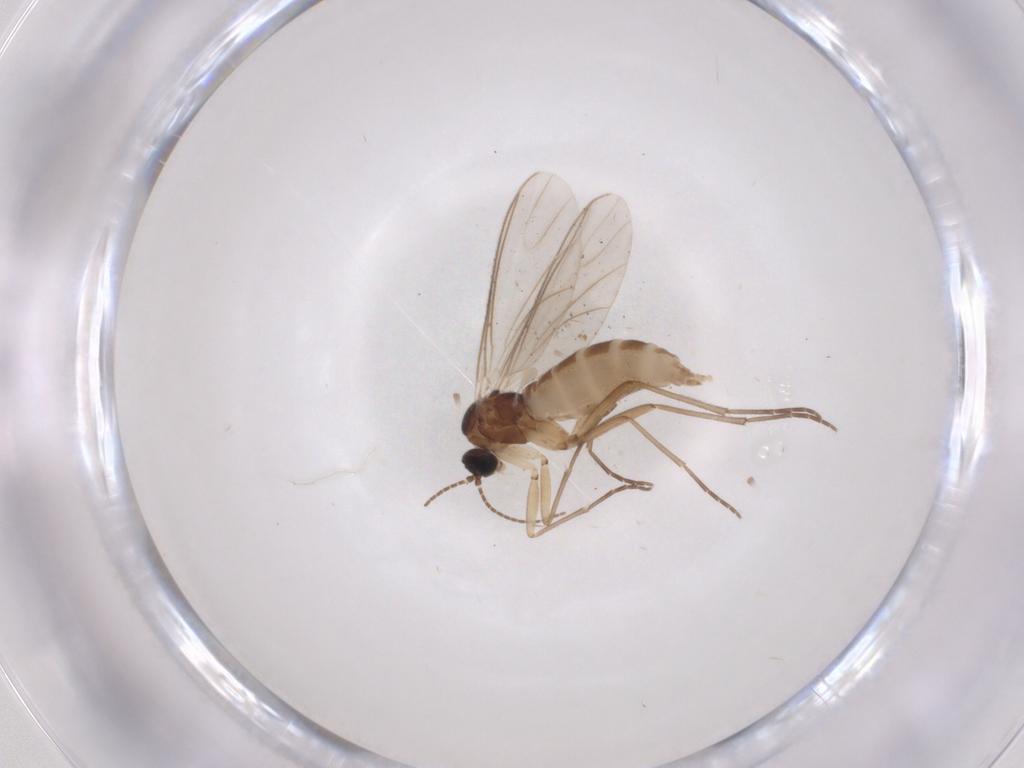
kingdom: Animalia
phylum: Arthropoda
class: Insecta
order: Diptera
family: Sciaridae
